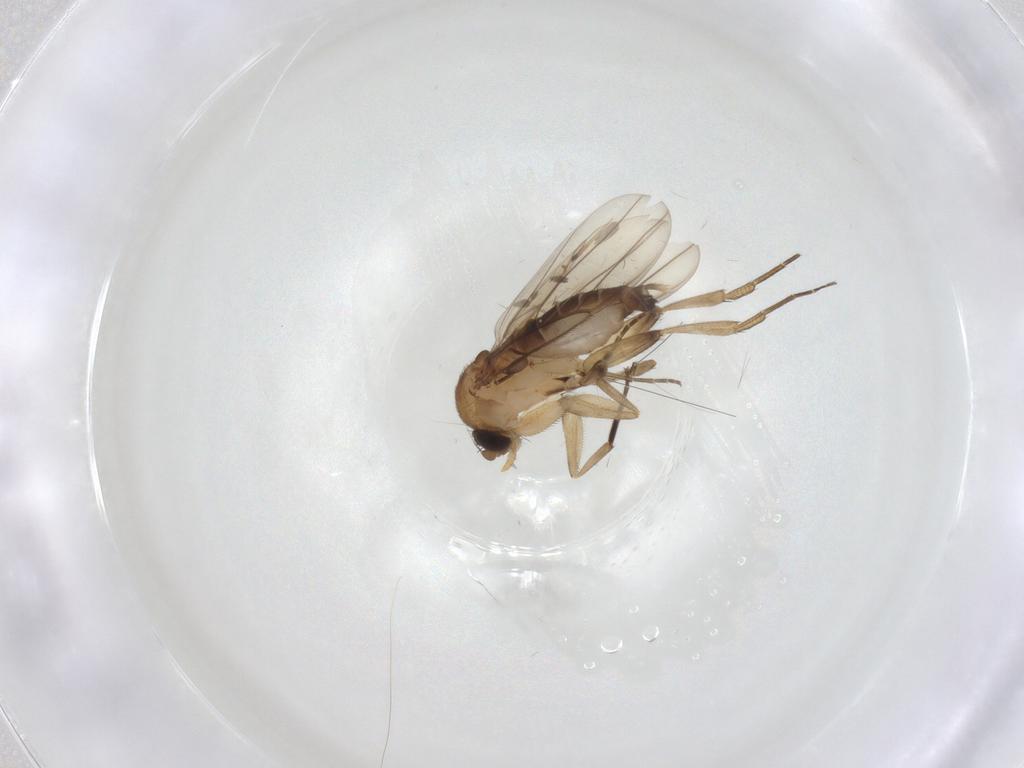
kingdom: Animalia
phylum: Arthropoda
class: Insecta
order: Diptera
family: Phoridae
